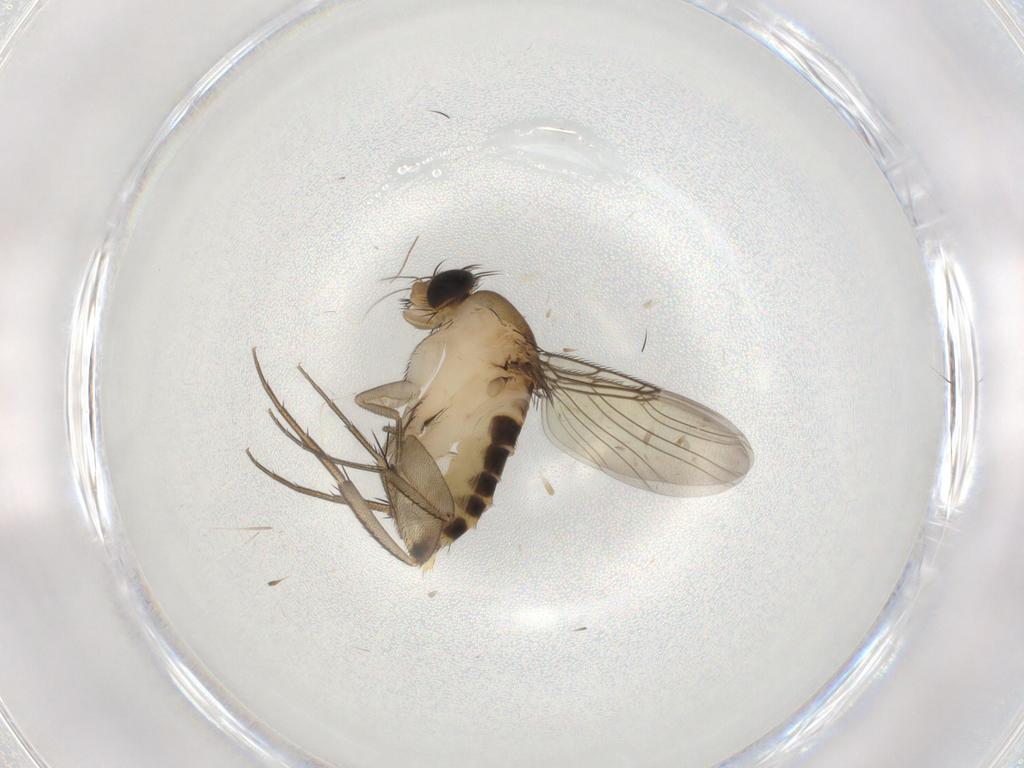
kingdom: Animalia
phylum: Arthropoda
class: Insecta
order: Diptera
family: Phoridae
